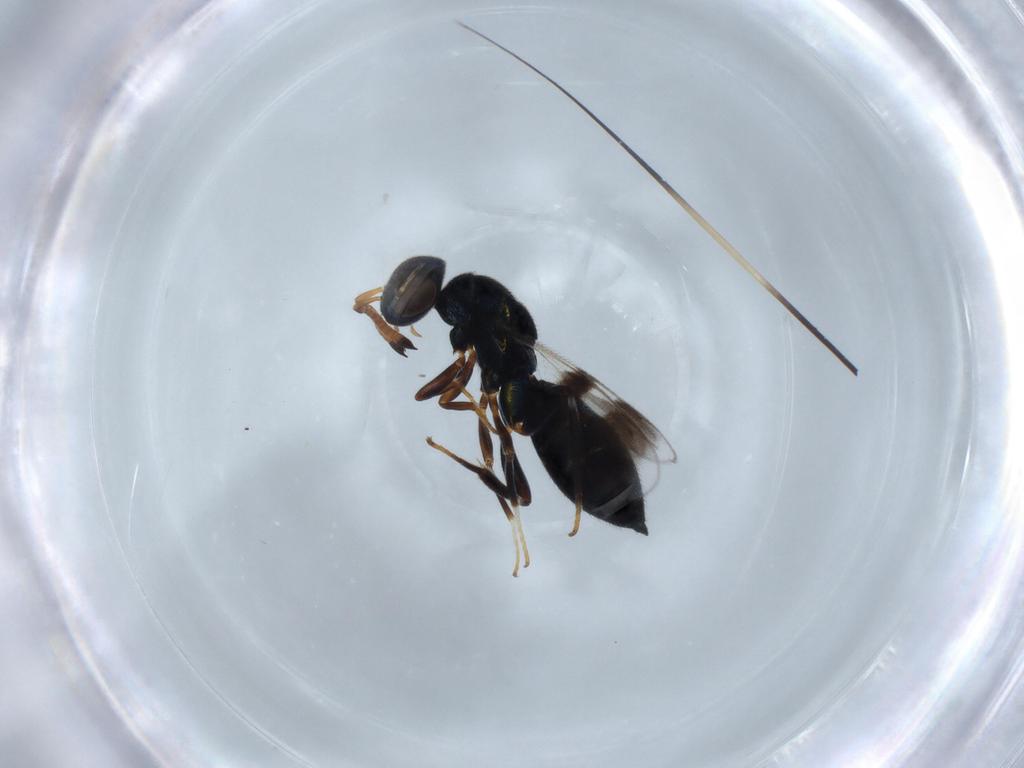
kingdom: Animalia
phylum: Arthropoda
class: Insecta
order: Hymenoptera
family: Cleonyminae
